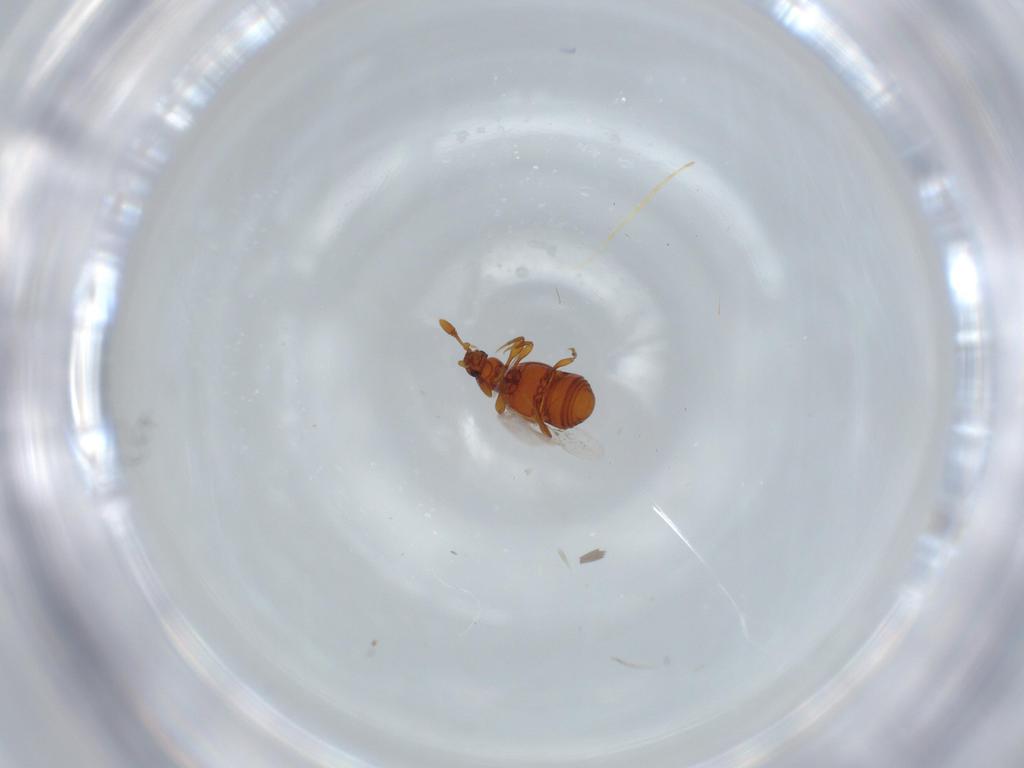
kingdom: Animalia
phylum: Arthropoda
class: Insecta
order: Coleoptera
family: Staphylinidae
